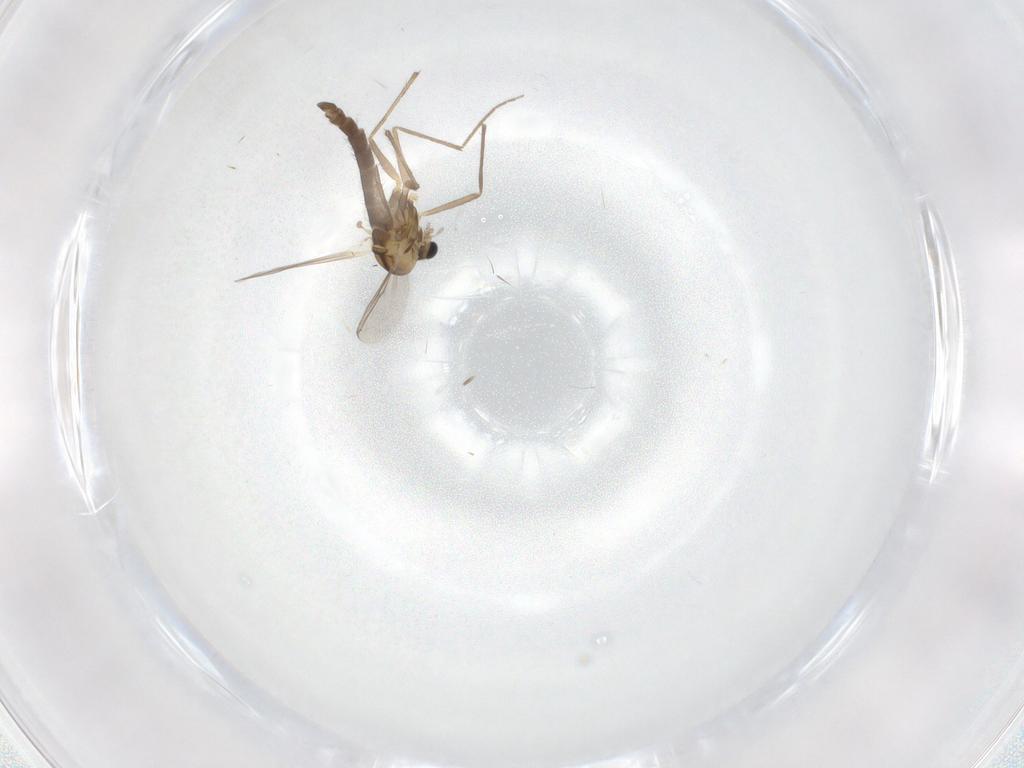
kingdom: Animalia
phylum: Arthropoda
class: Insecta
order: Diptera
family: Chironomidae
